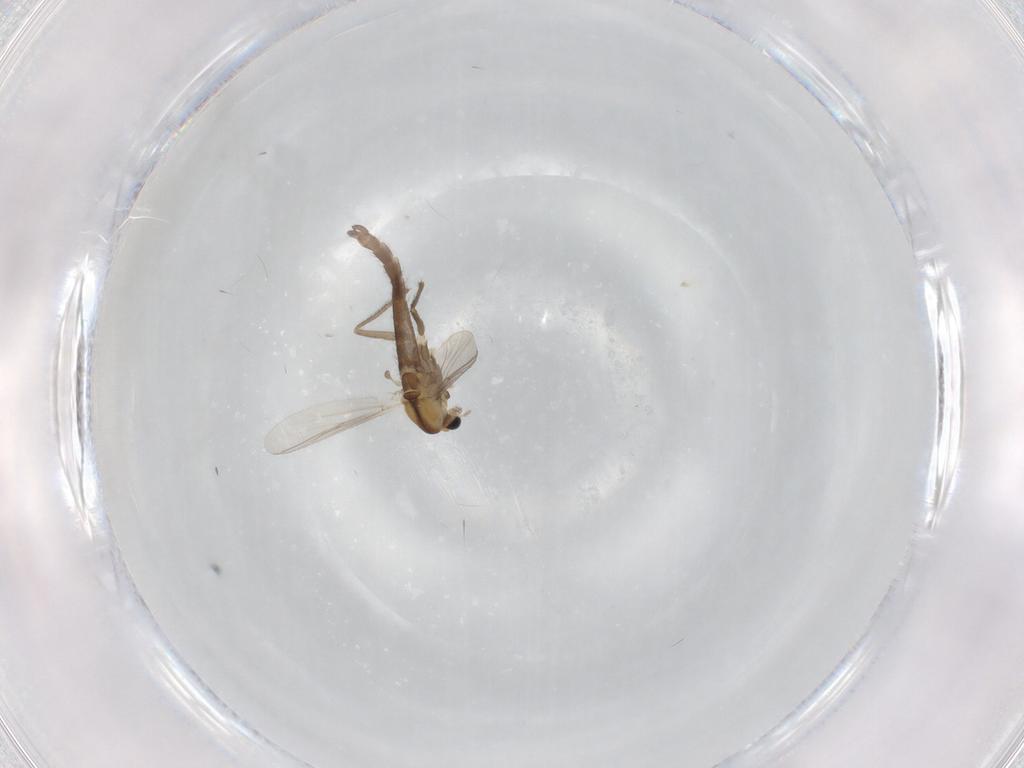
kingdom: Animalia
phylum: Arthropoda
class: Insecta
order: Diptera
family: Chironomidae
